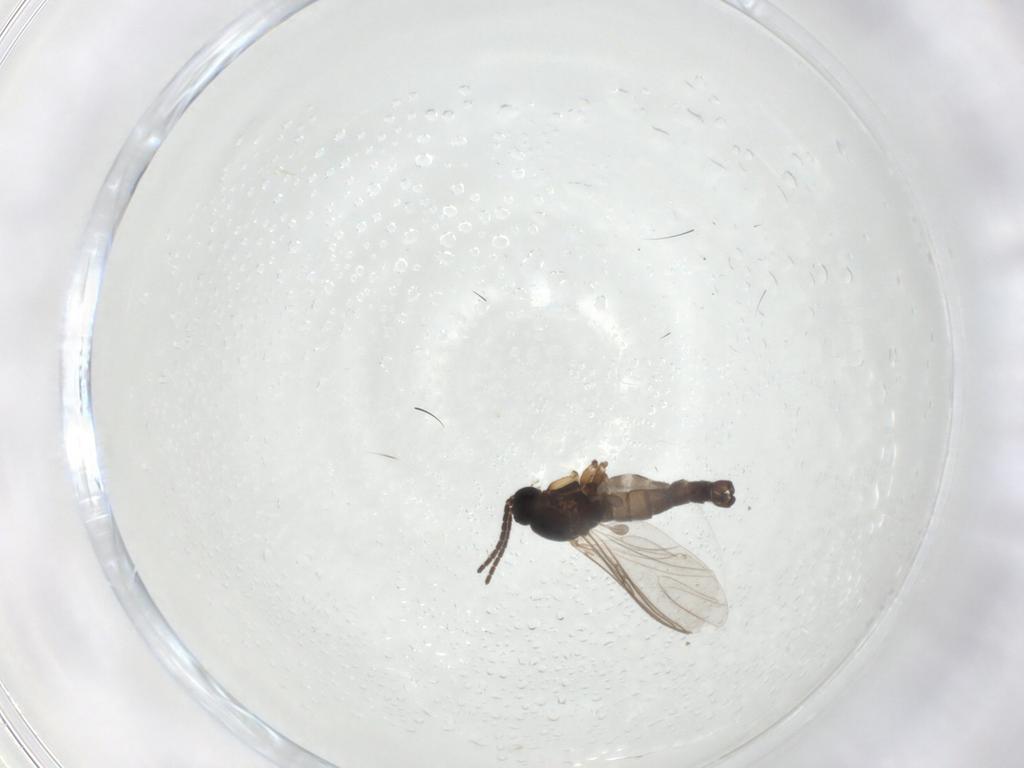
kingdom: Animalia
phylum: Arthropoda
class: Insecta
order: Diptera
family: Sciaridae
